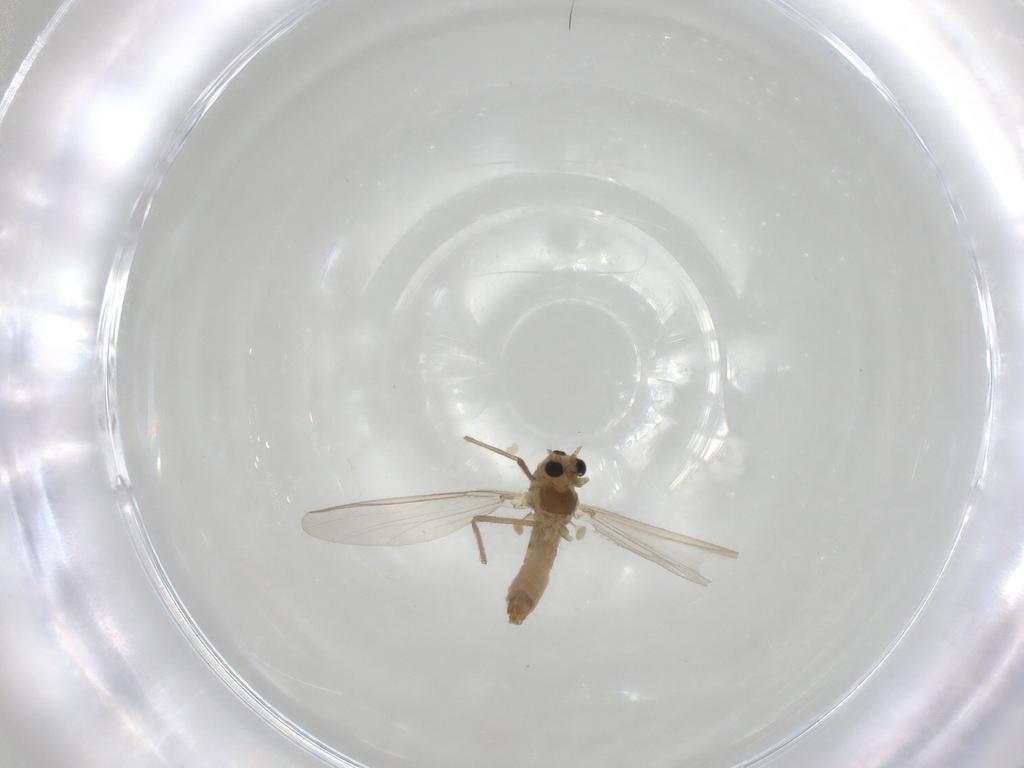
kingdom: Animalia
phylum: Arthropoda
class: Insecta
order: Diptera
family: Chironomidae
